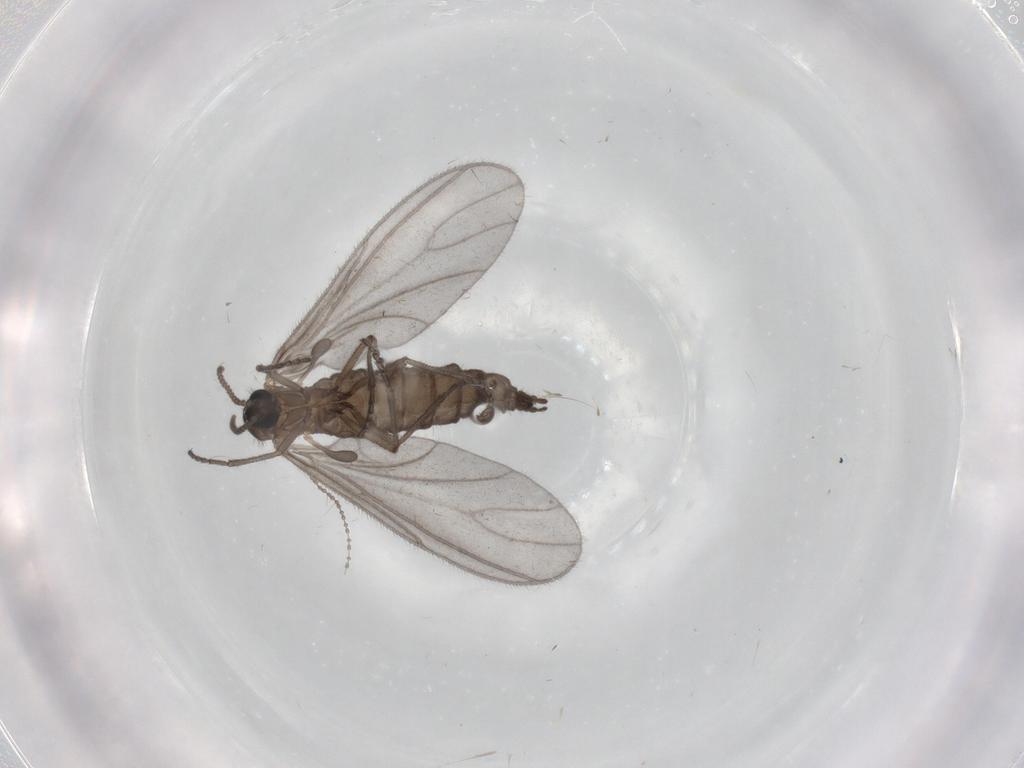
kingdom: Animalia
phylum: Arthropoda
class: Insecta
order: Diptera
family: Sciaridae
